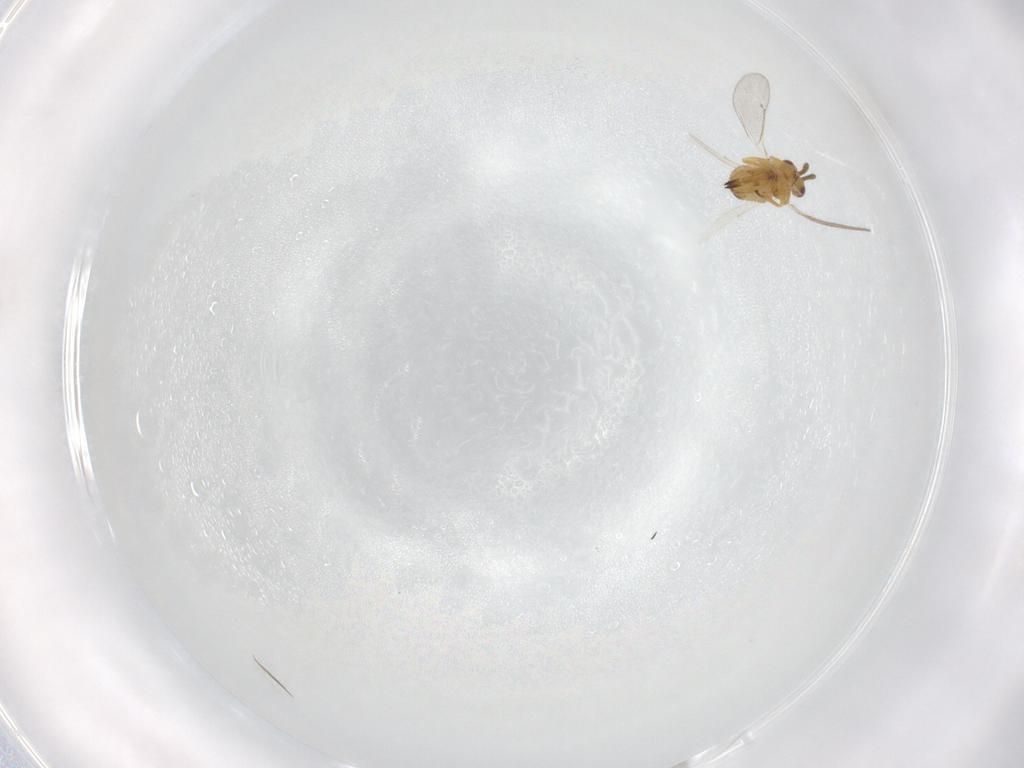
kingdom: Animalia
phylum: Arthropoda
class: Insecta
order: Hymenoptera
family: Eulophidae
